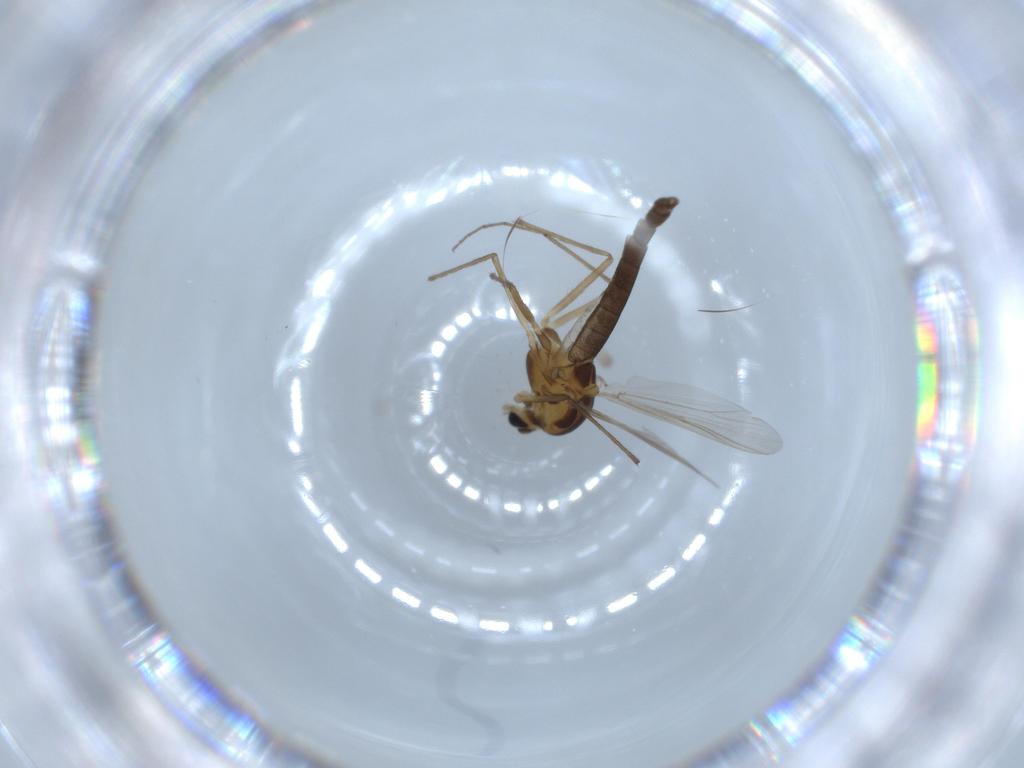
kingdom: Animalia
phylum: Arthropoda
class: Insecta
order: Diptera
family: Phoridae
